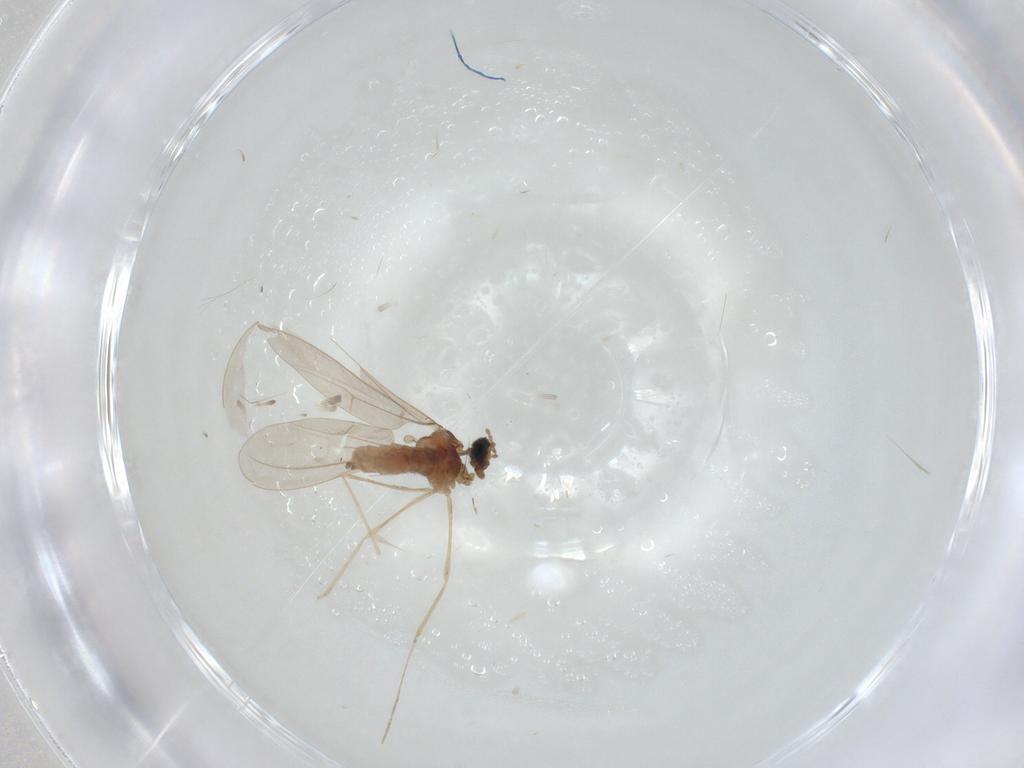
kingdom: Animalia
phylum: Arthropoda
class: Insecta
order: Diptera
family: Cecidomyiidae
